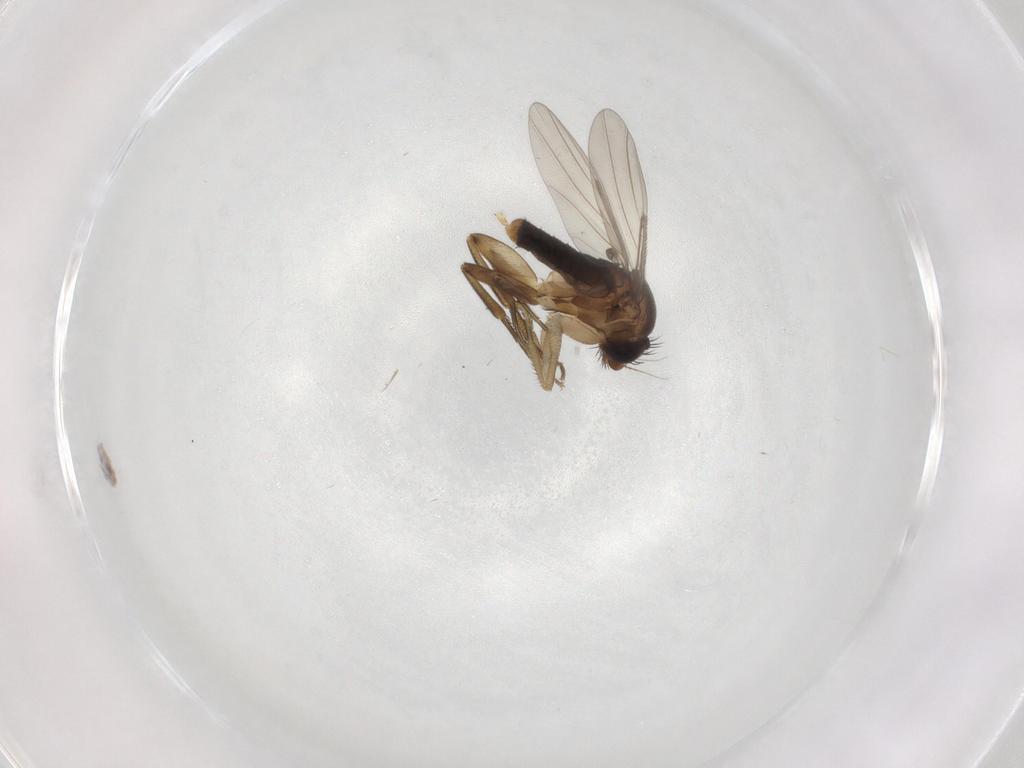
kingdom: Animalia
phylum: Arthropoda
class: Insecta
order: Diptera
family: Phoridae
